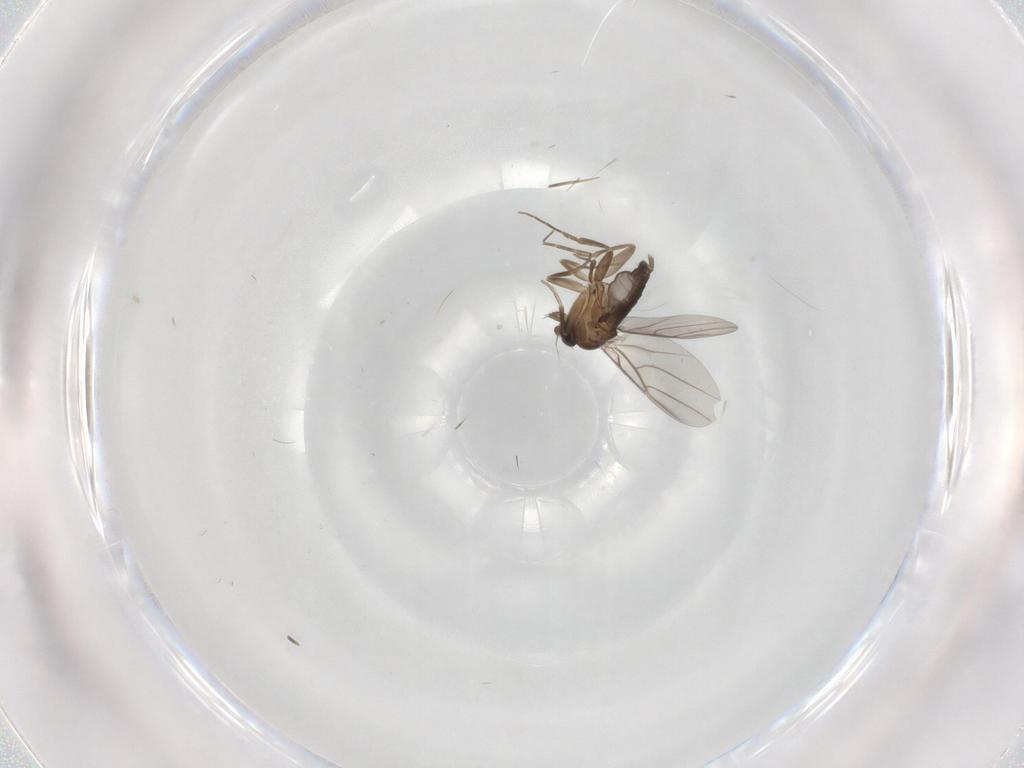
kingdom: Animalia
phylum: Arthropoda
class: Insecta
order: Diptera
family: Phoridae
